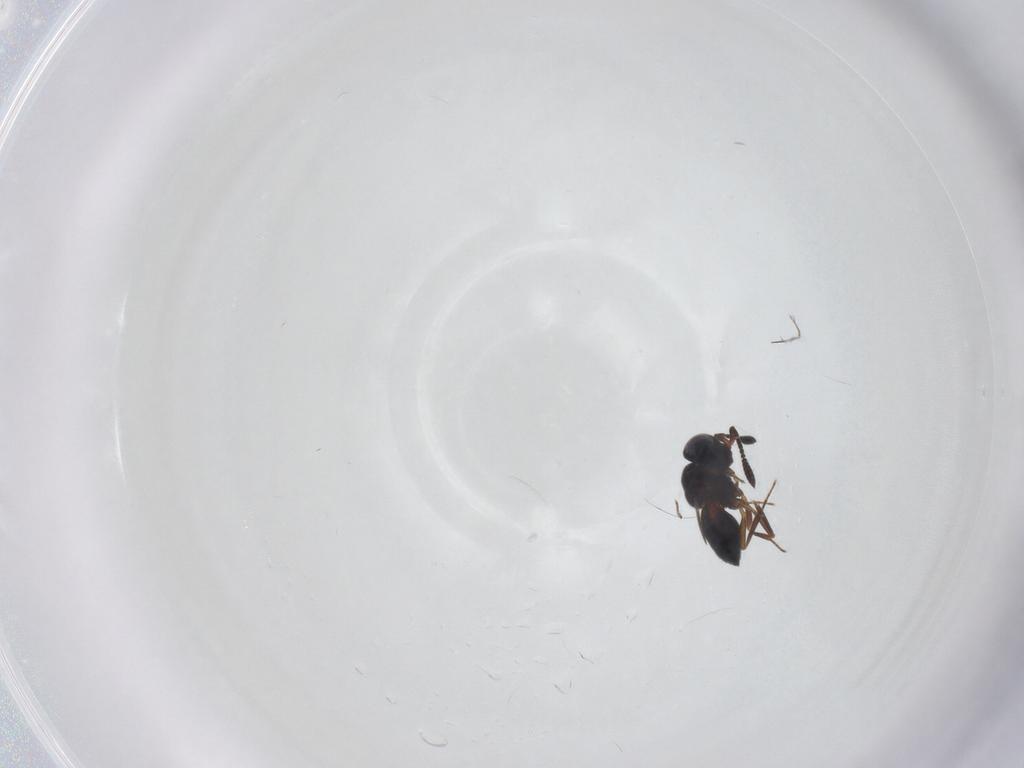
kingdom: Animalia
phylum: Arthropoda
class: Insecta
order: Hymenoptera
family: Scelionidae
